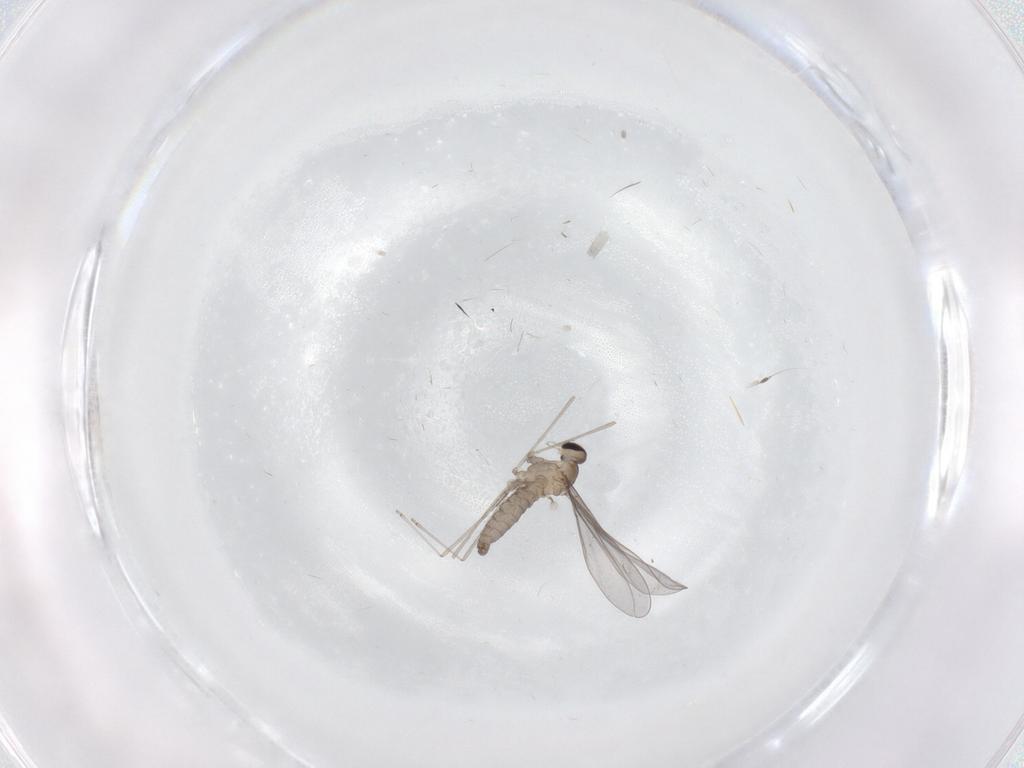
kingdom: Animalia
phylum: Arthropoda
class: Insecta
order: Diptera
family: Cecidomyiidae
